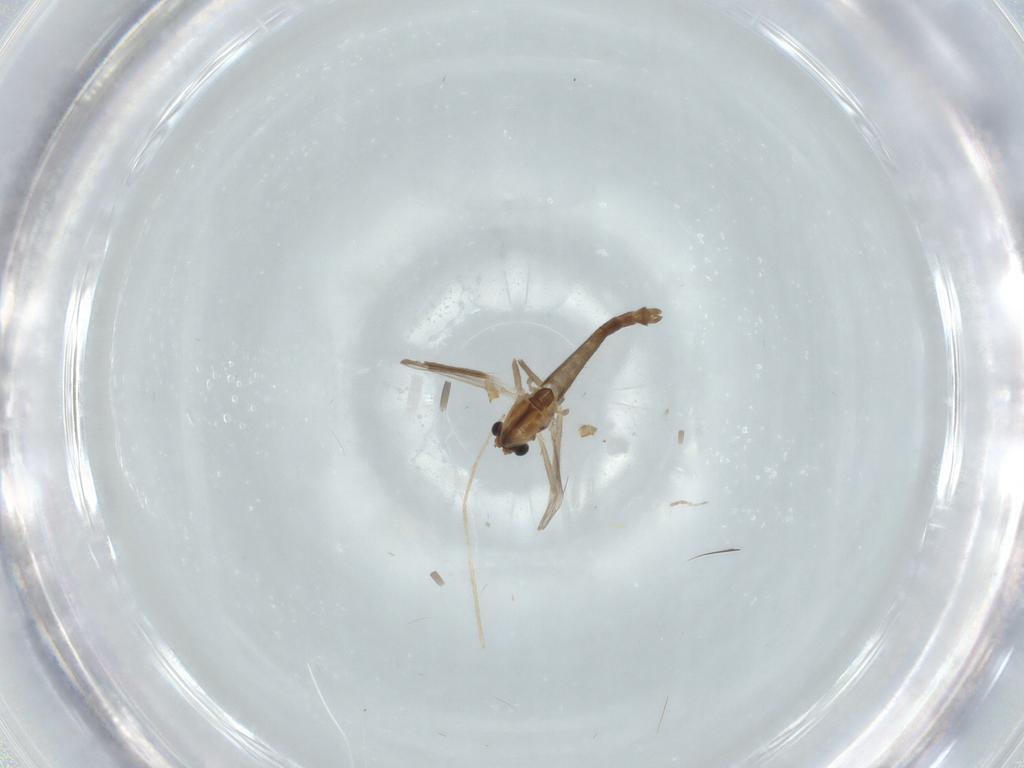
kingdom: Animalia
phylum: Arthropoda
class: Insecta
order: Diptera
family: Chironomidae
